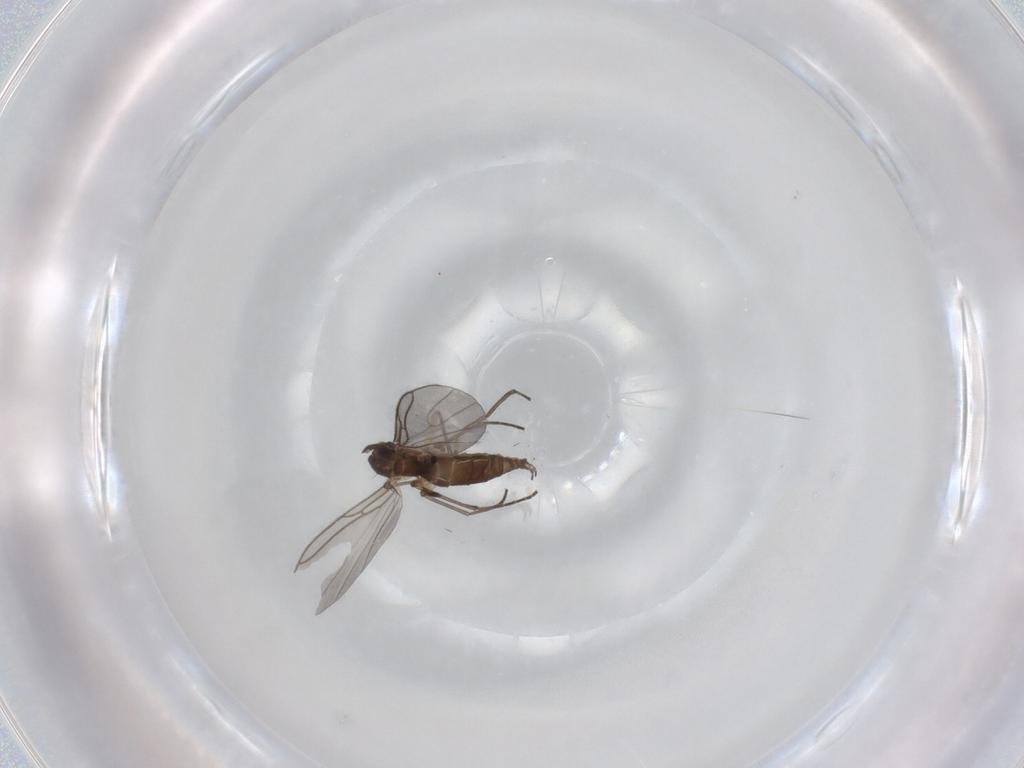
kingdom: Animalia
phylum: Arthropoda
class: Insecta
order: Diptera
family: Sciaridae
